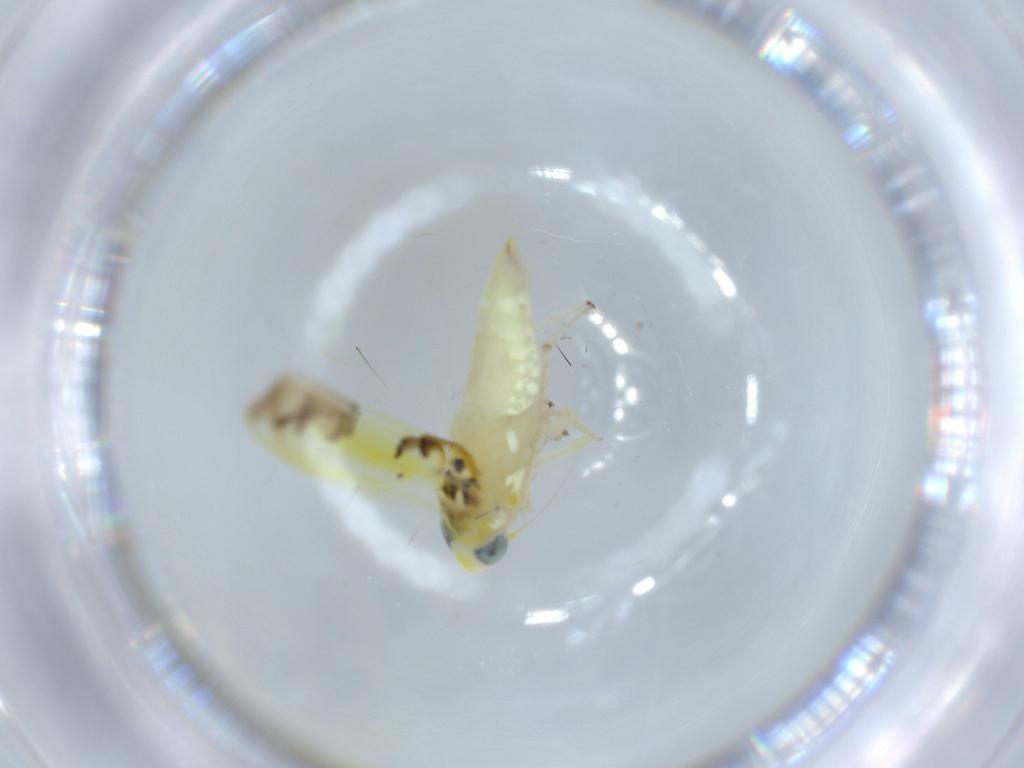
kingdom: Animalia
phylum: Arthropoda
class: Insecta
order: Hemiptera
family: Cicadellidae
